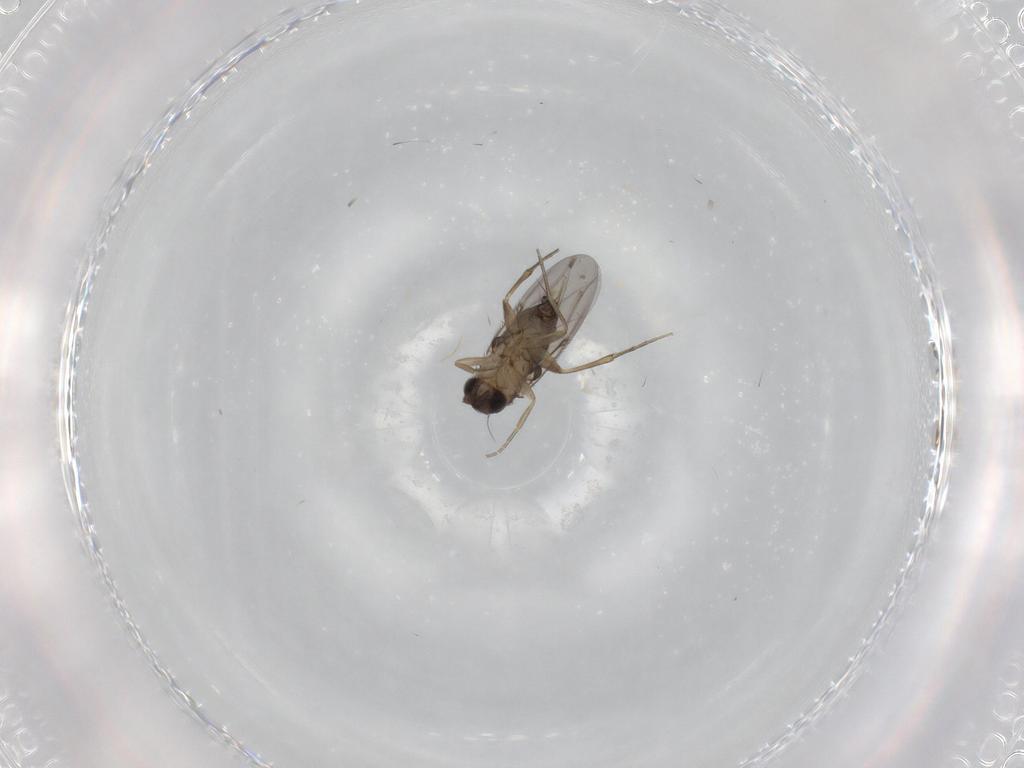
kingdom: Animalia
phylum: Arthropoda
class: Insecta
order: Diptera
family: Phoridae
